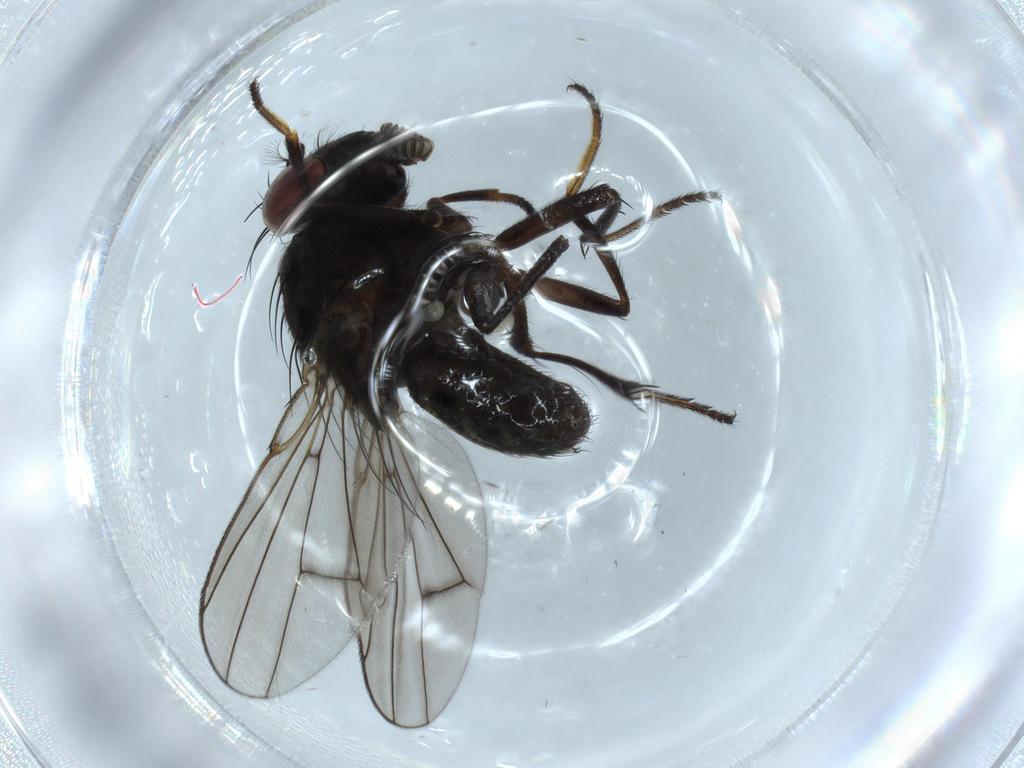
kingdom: Animalia
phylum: Arthropoda
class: Insecta
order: Diptera
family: Ephydridae
